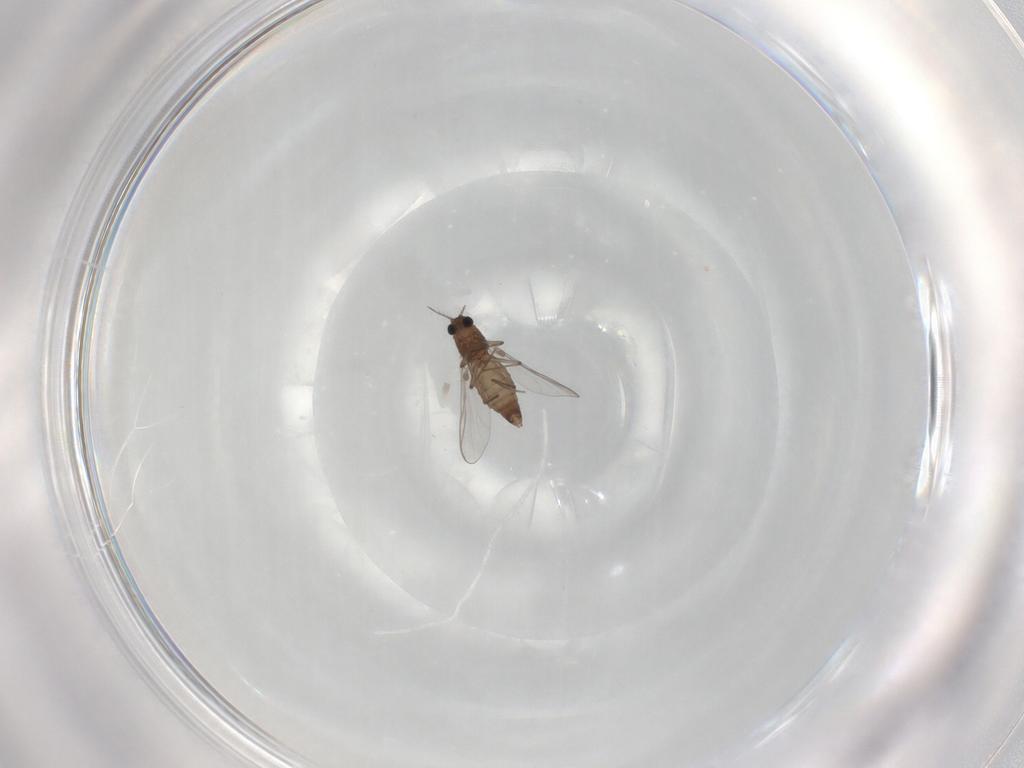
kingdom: Animalia
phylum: Arthropoda
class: Insecta
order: Diptera
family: Chironomidae
